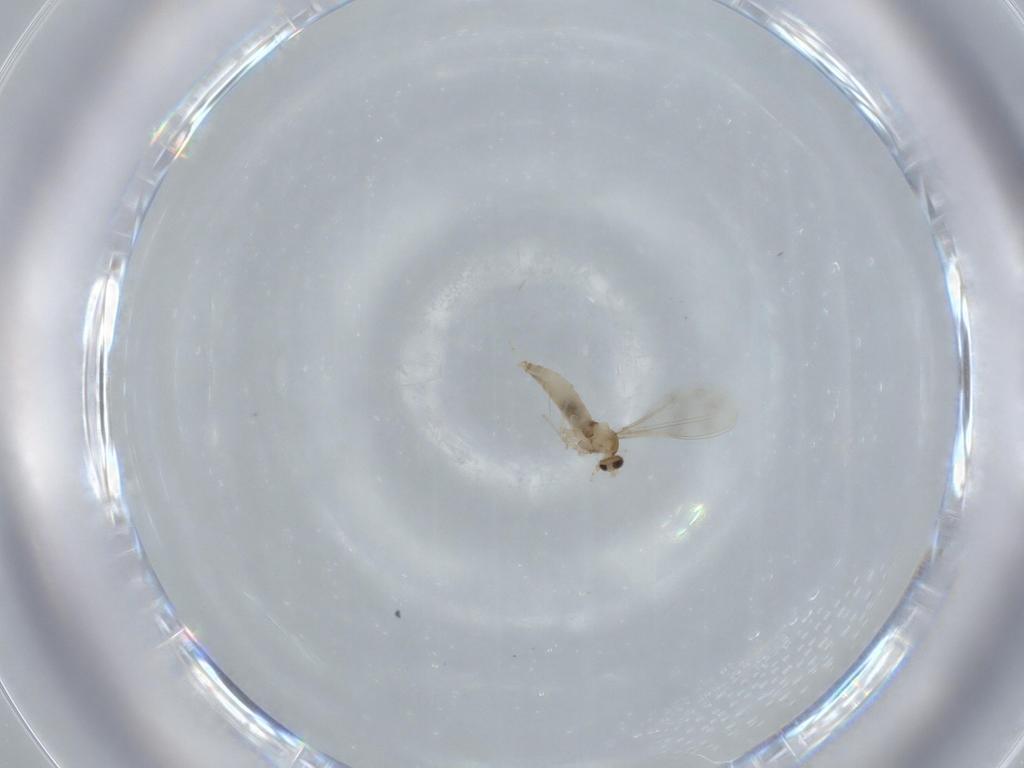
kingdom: Animalia
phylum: Arthropoda
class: Insecta
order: Diptera
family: Cecidomyiidae
